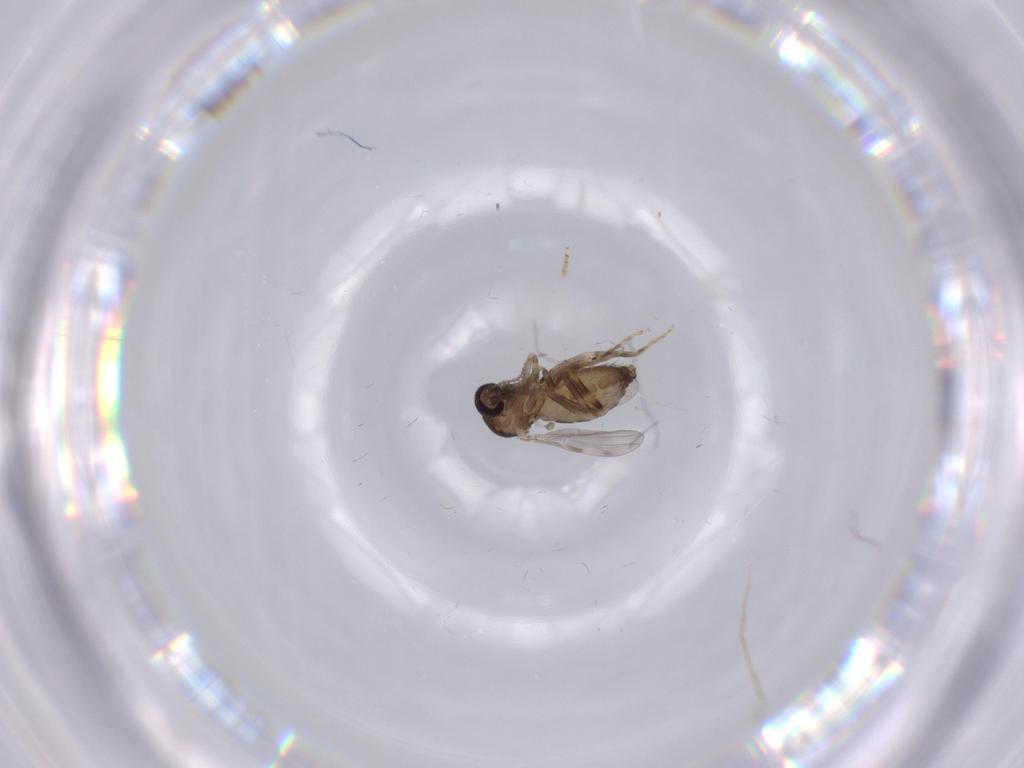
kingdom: Animalia
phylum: Arthropoda
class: Insecta
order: Diptera
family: Ceratopogonidae
